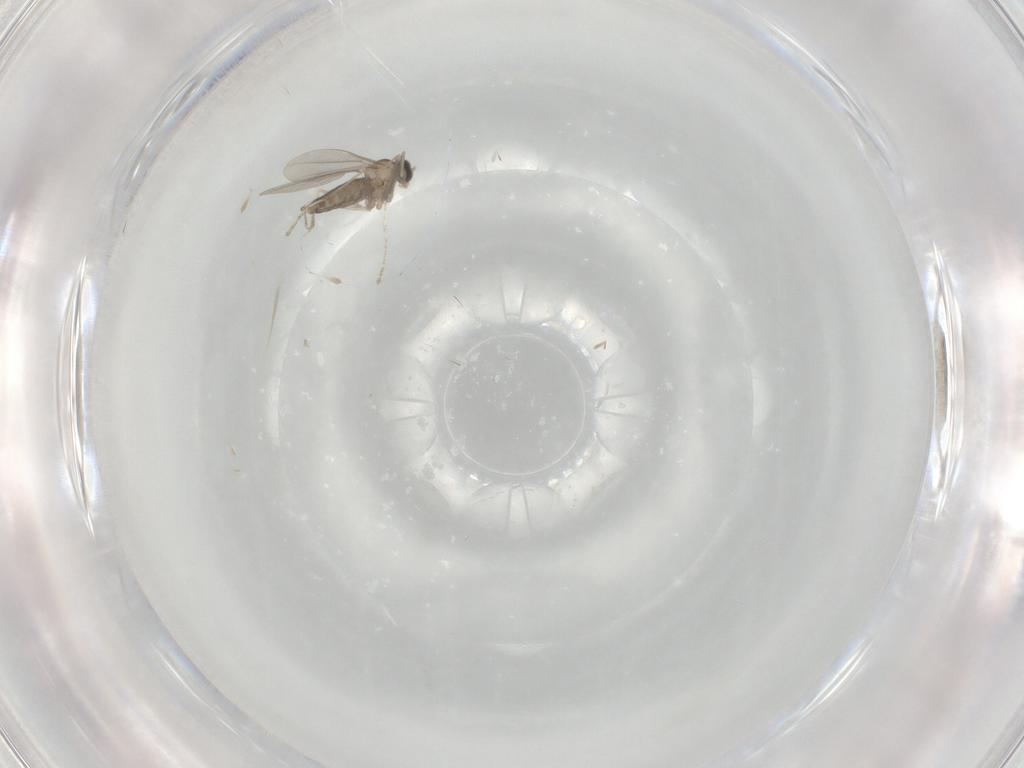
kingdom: Animalia
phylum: Arthropoda
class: Insecta
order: Diptera
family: Cecidomyiidae
